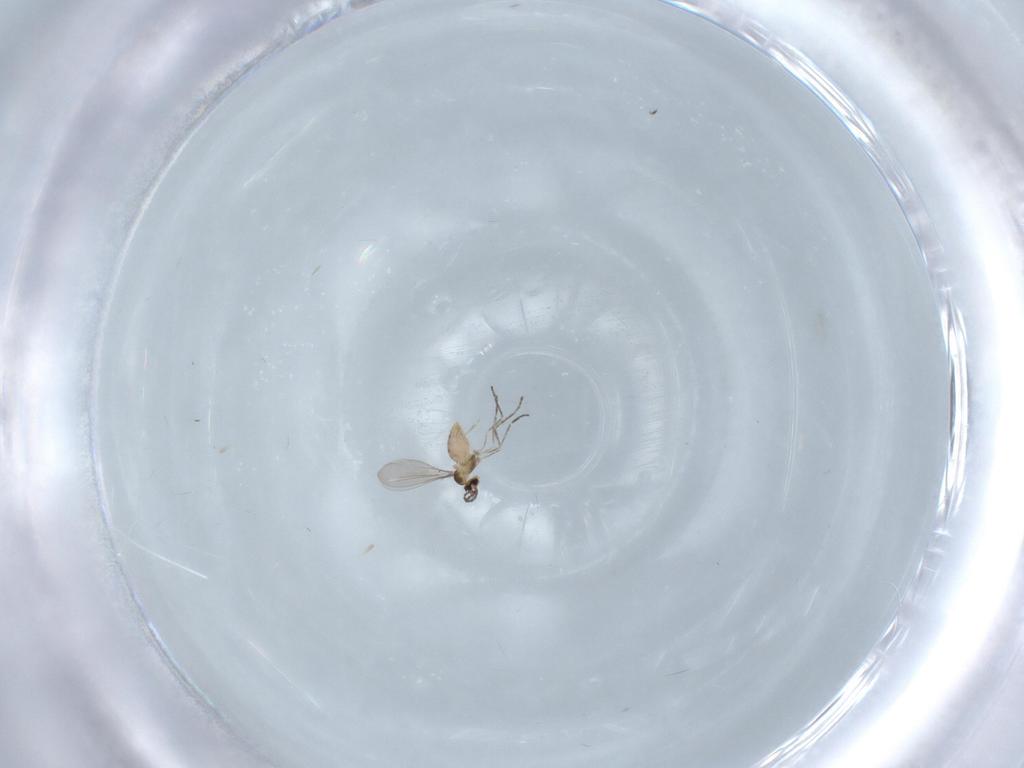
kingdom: Animalia
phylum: Arthropoda
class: Insecta
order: Diptera
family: Cecidomyiidae
